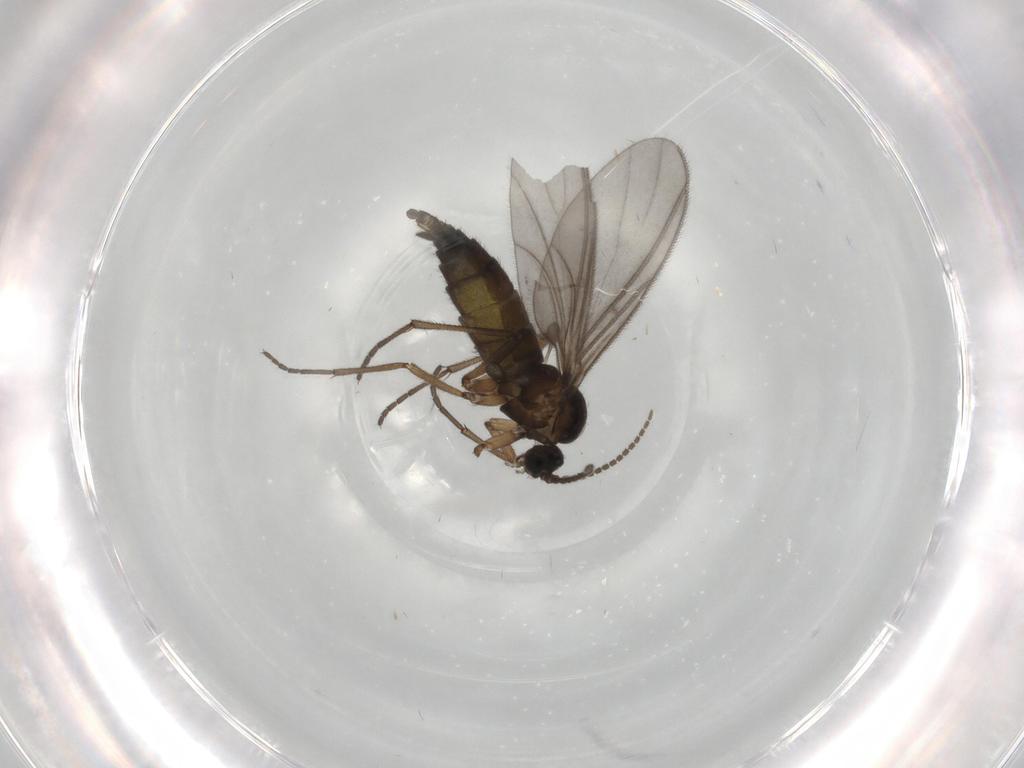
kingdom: Animalia
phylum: Arthropoda
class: Insecta
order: Diptera
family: Sciaridae
